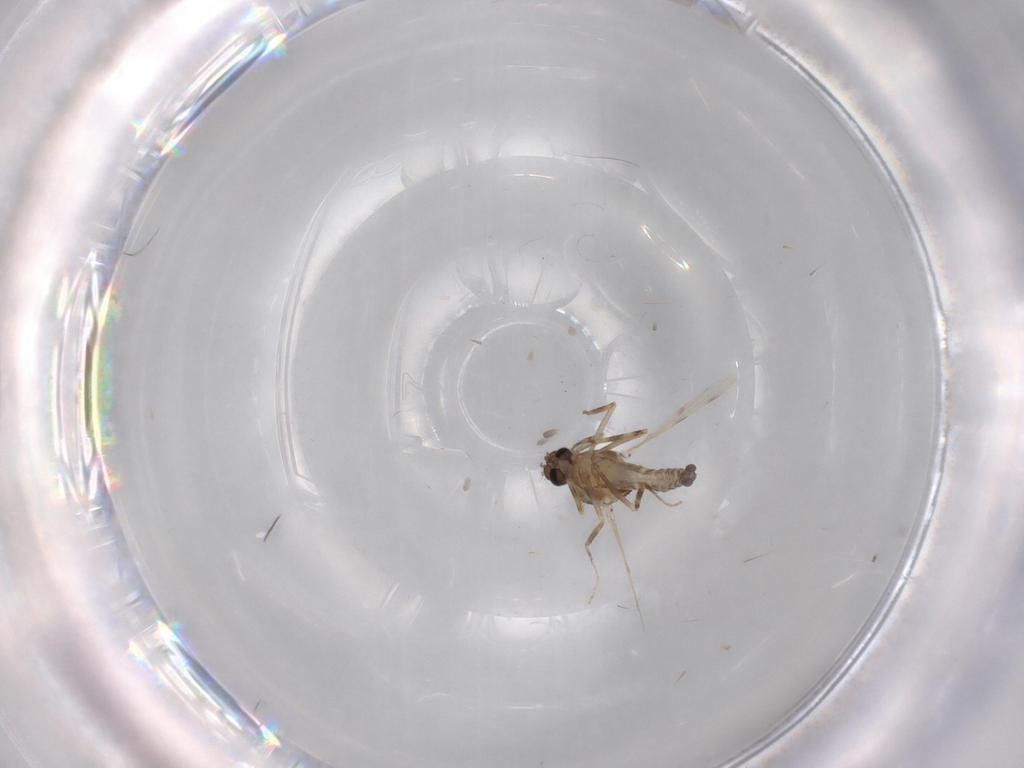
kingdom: Animalia
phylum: Arthropoda
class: Insecta
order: Diptera
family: Ceratopogonidae
